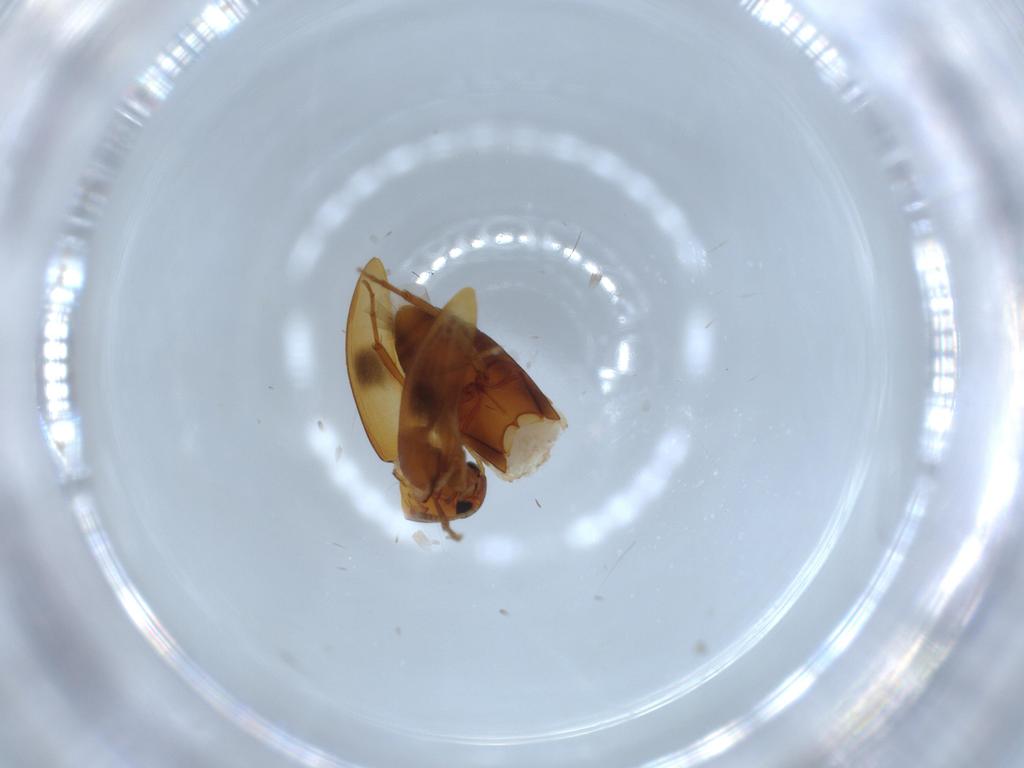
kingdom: Animalia
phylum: Arthropoda
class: Insecta
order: Coleoptera
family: Scraptiidae
